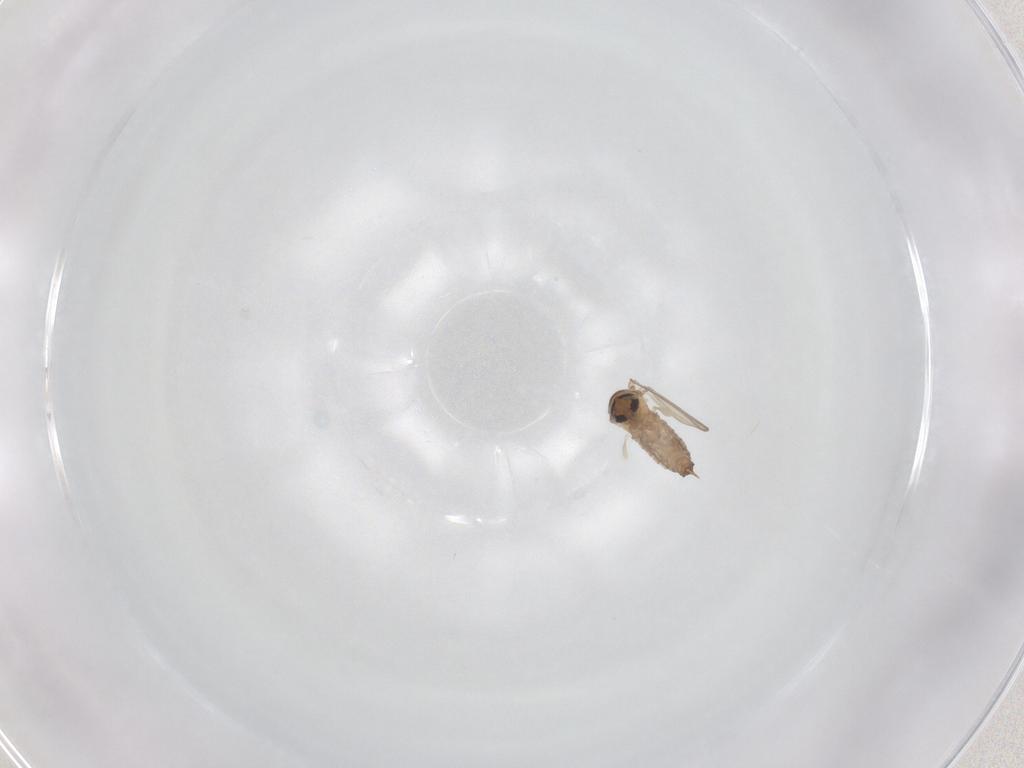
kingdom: Animalia
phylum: Arthropoda
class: Insecta
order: Diptera
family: Psychodidae
